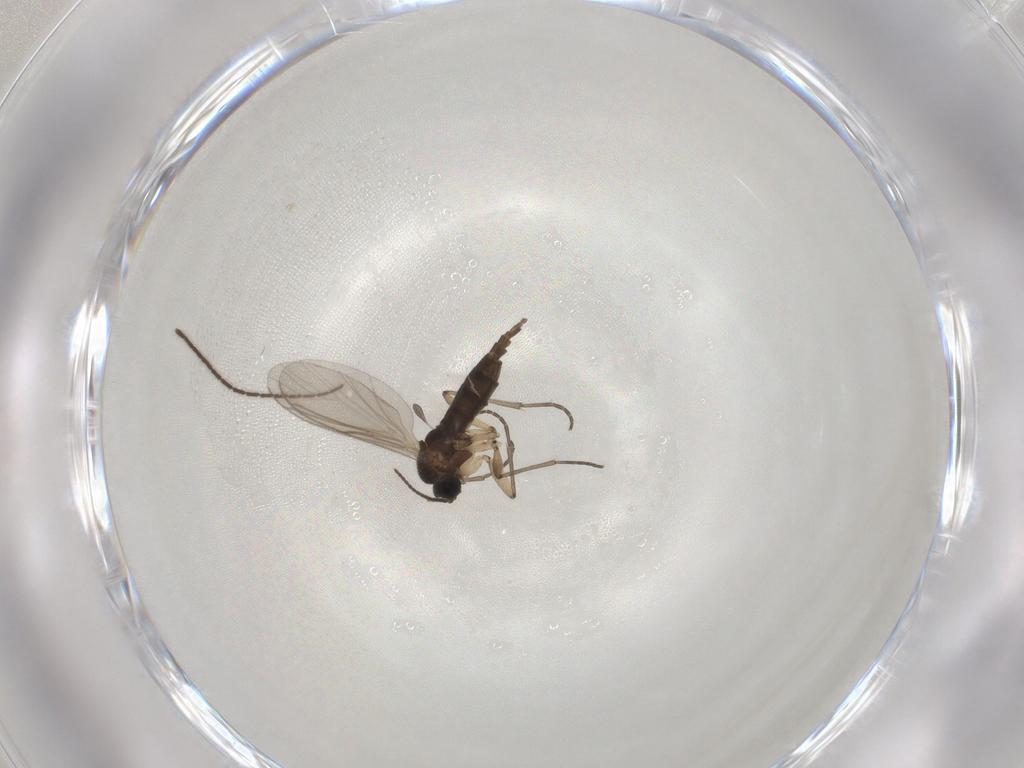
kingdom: Animalia
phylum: Arthropoda
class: Insecta
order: Diptera
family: Sciaridae
